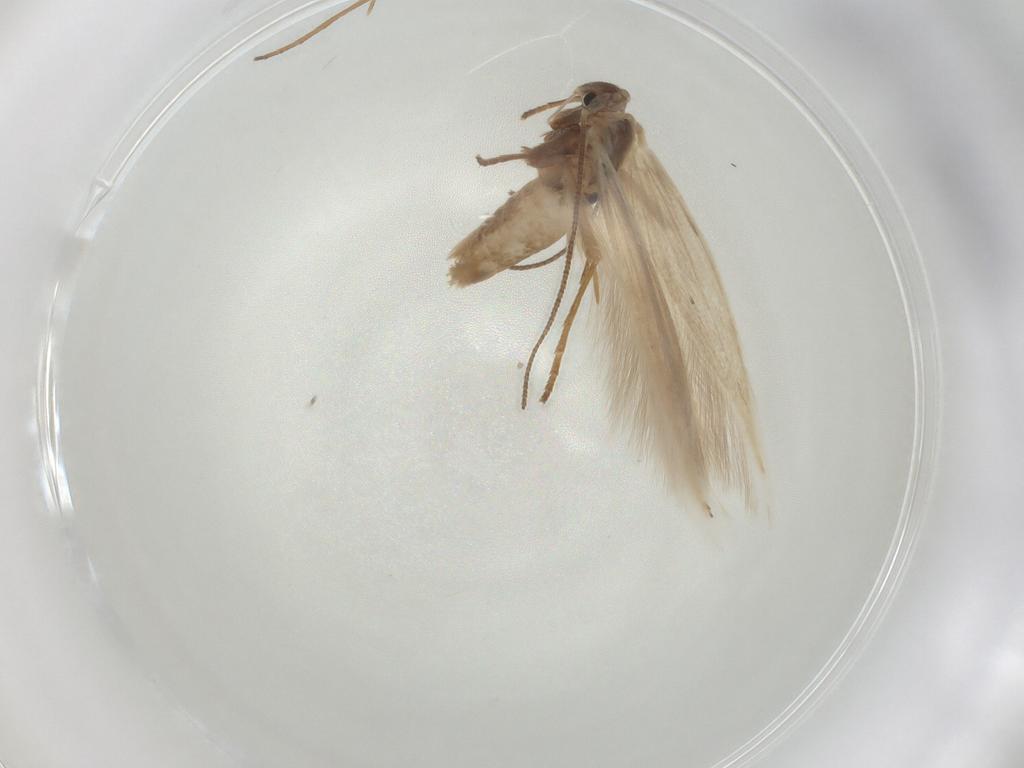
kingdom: Animalia
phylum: Arthropoda
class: Insecta
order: Lepidoptera
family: Bucculatricidae
